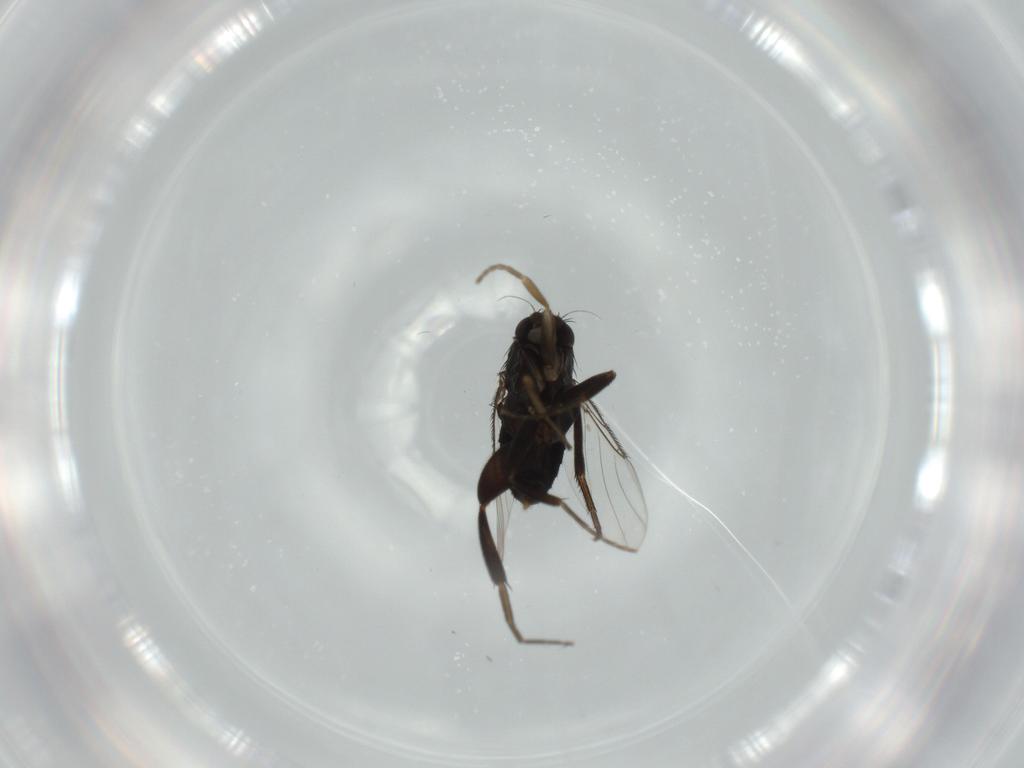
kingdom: Animalia
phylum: Arthropoda
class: Insecta
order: Diptera
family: Phoridae
